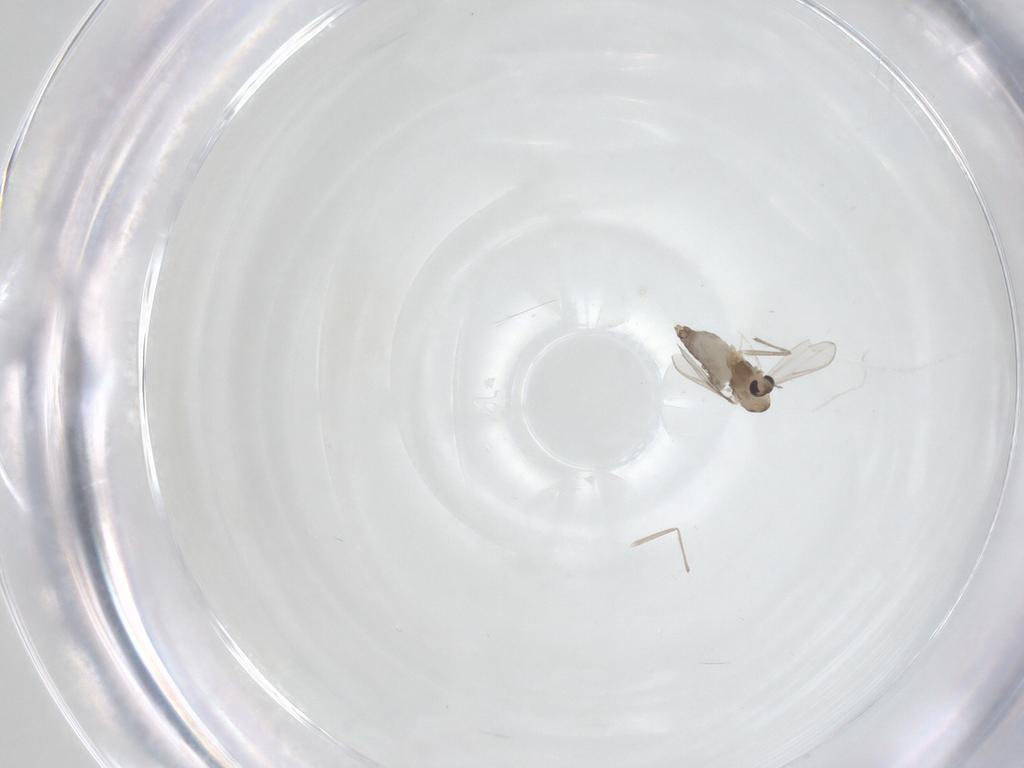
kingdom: Animalia
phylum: Arthropoda
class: Insecta
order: Diptera
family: Chironomidae
